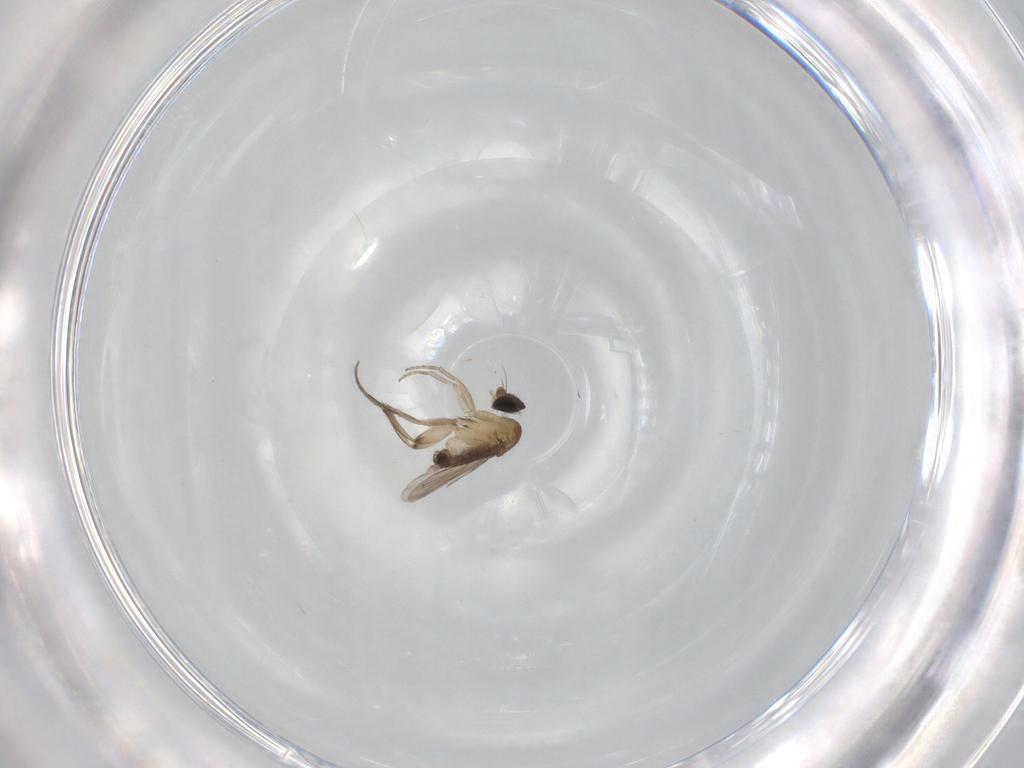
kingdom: Animalia
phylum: Arthropoda
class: Insecta
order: Diptera
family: Phoridae
